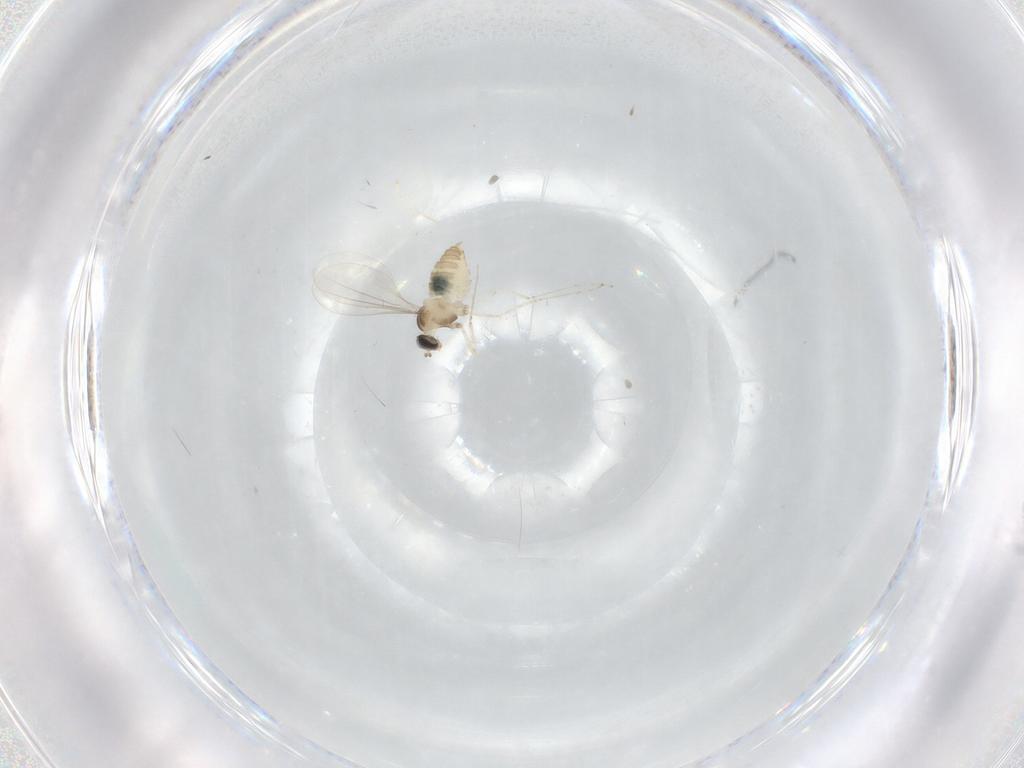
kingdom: Animalia
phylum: Arthropoda
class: Insecta
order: Diptera
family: Cecidomyiidae
